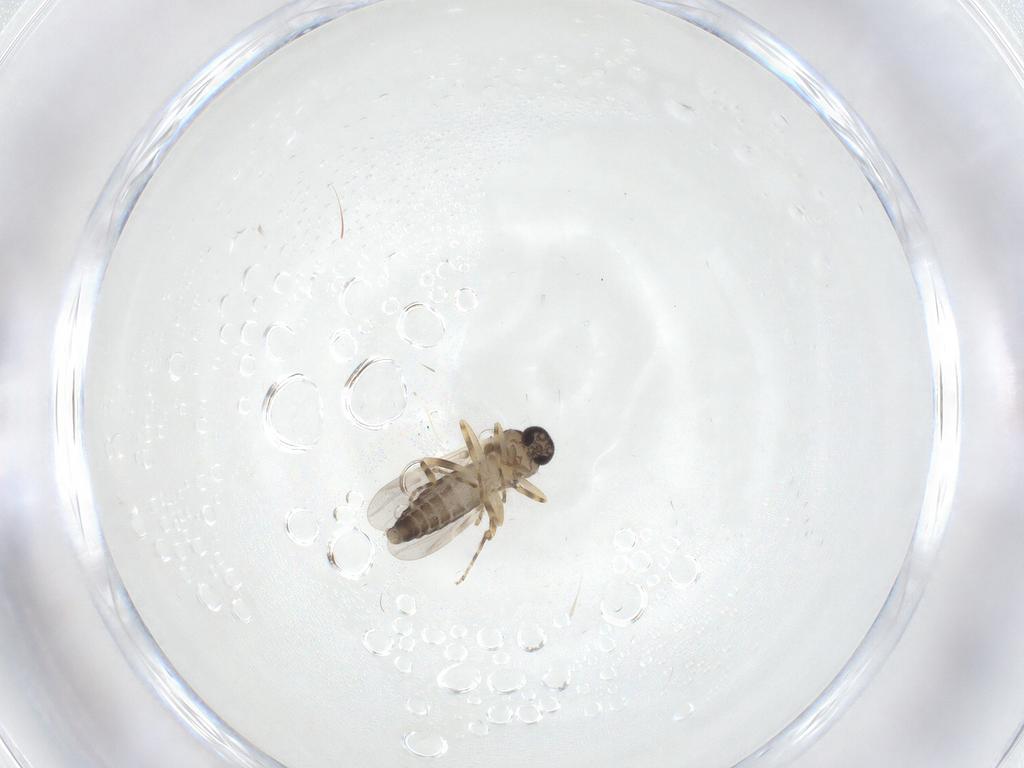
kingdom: Animalia
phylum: Arthropoda
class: Insecta
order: Diptera
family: Ceratopogonidae
